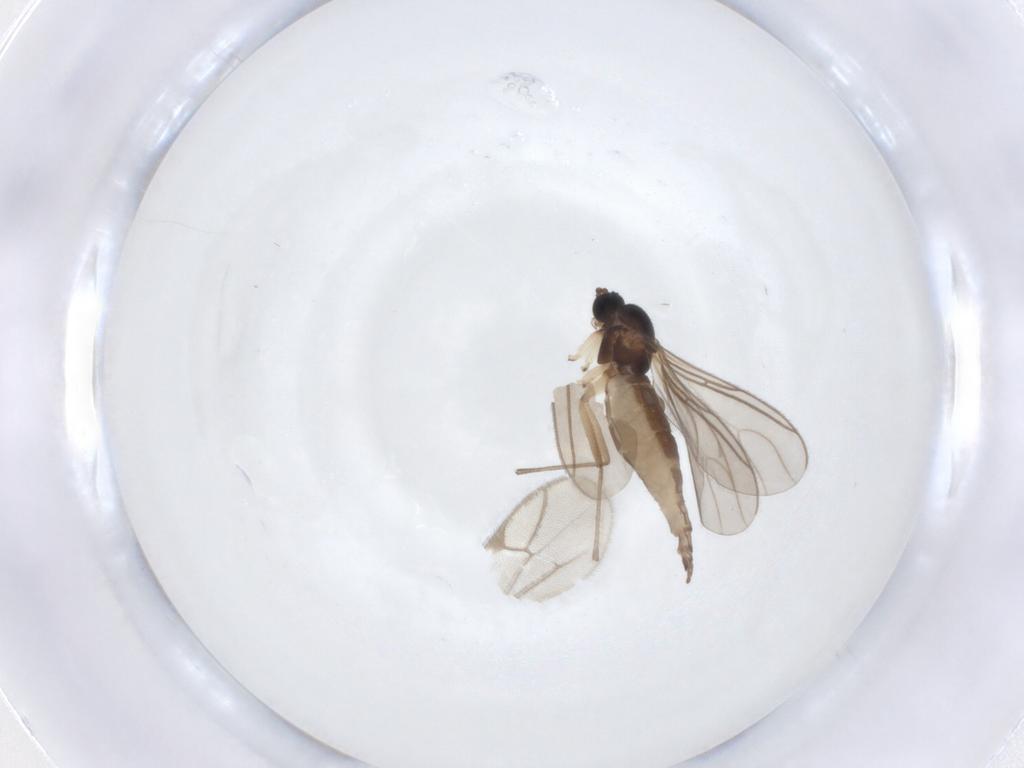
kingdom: Animalia
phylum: Arthropoda
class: Insecta
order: Diptera
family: Sciaridae
